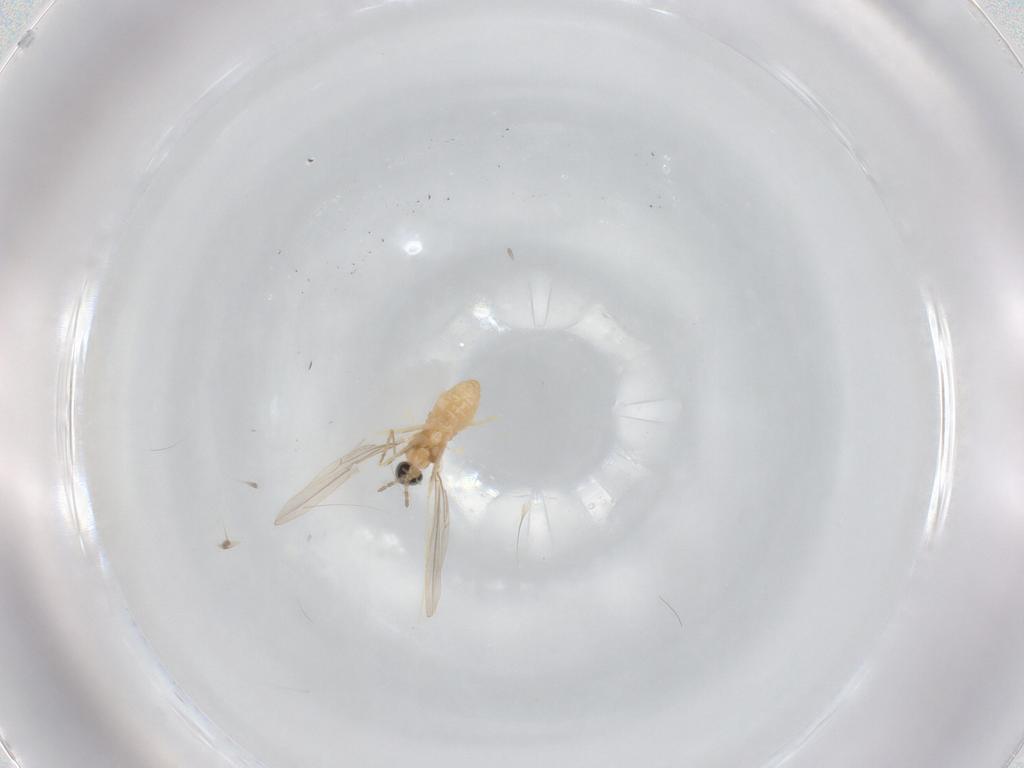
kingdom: Animalia
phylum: Arthropoda
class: Insecta
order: Diptera
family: Cecidomyiidae
